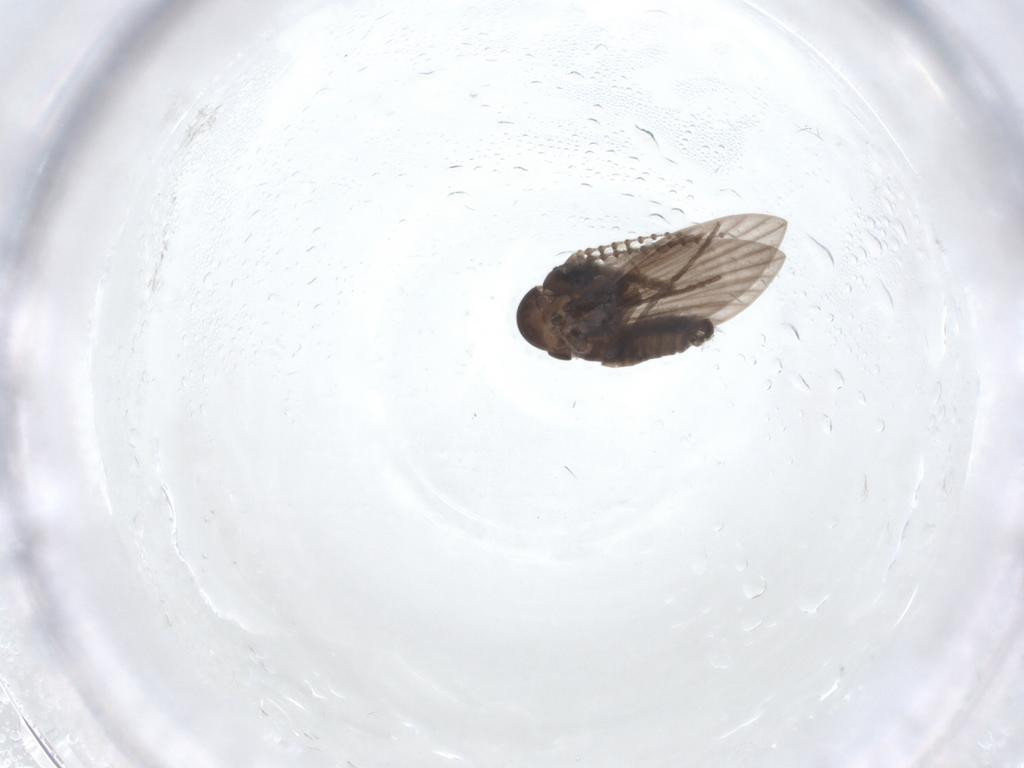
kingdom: Animalia
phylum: Arthropoda
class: Insecta
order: Diptera
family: Psychodidae
